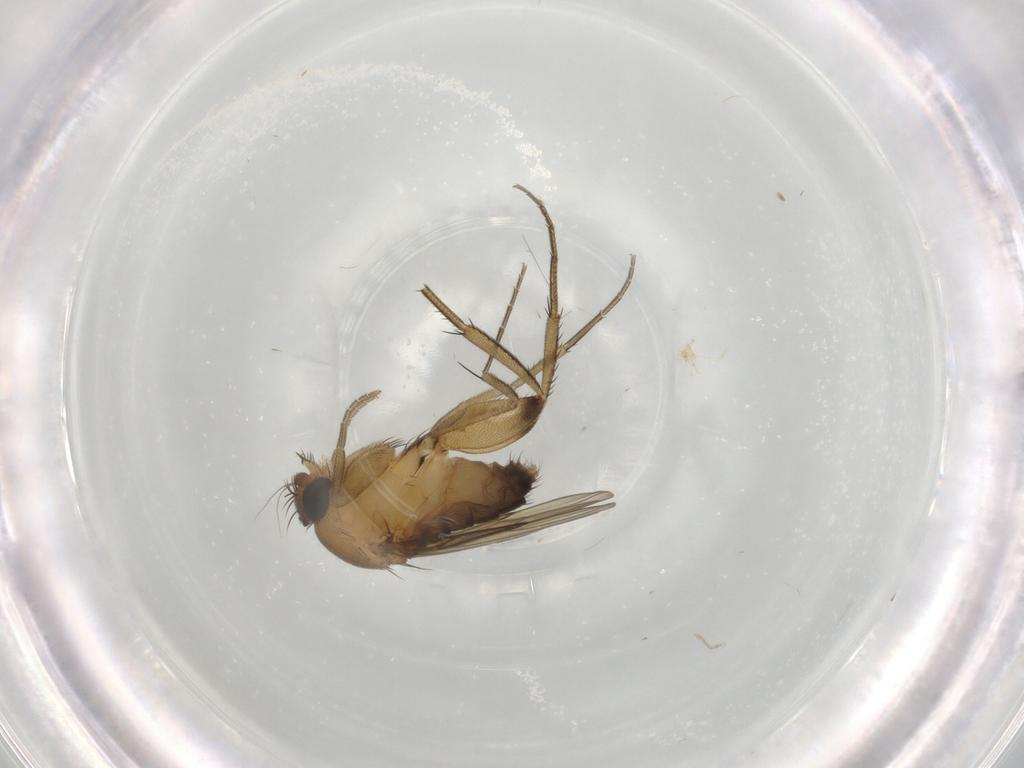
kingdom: Animalia
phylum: Arthropoda
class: Insecta
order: Diptera
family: Phoridae
